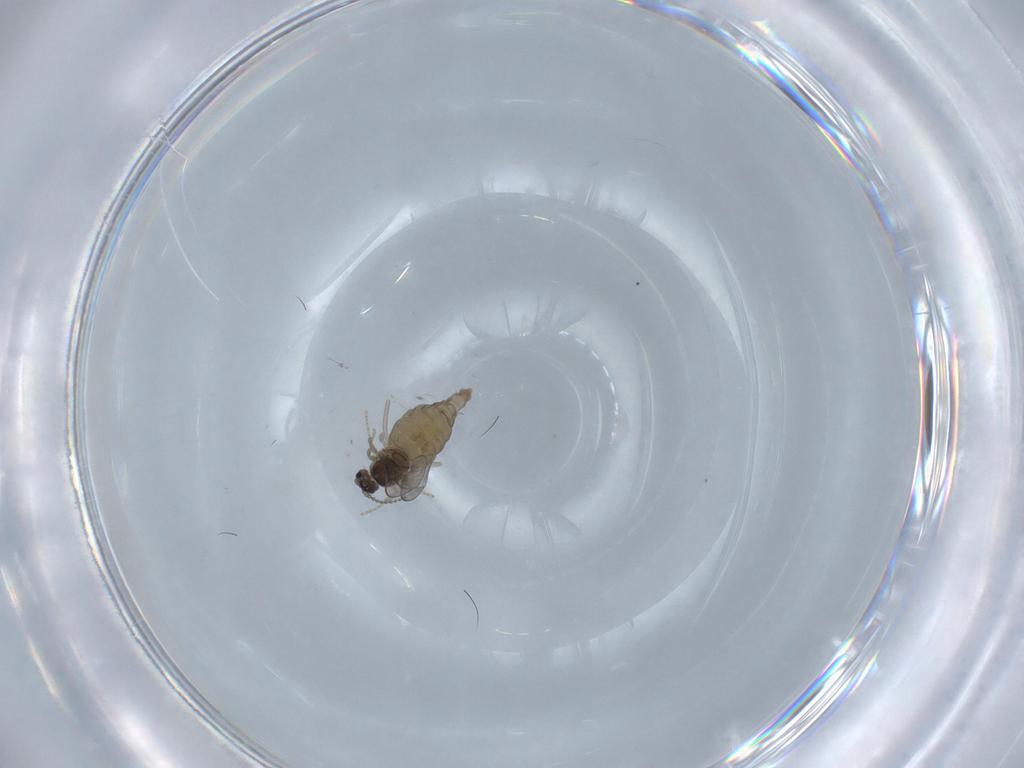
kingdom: Animalia
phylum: Arthropoda
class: Insecta
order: Diptera
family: Cecidomyiidae
